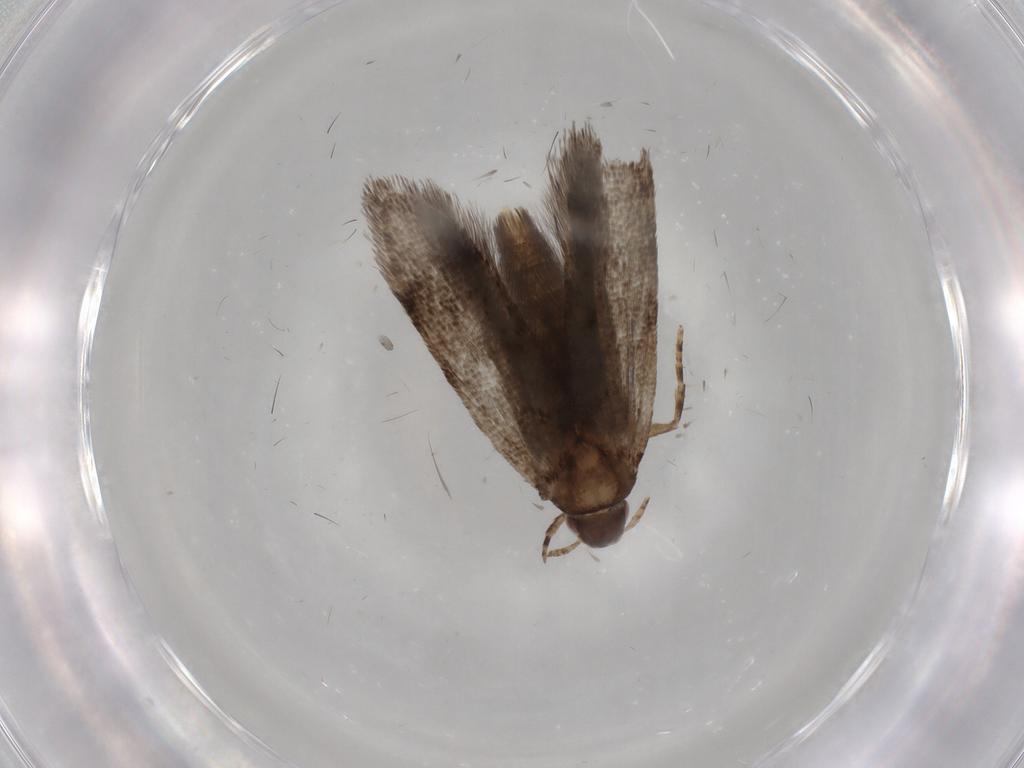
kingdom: Animalia
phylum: Arthropoda
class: Insecta
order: Lepidoptera
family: Gelechiidae
